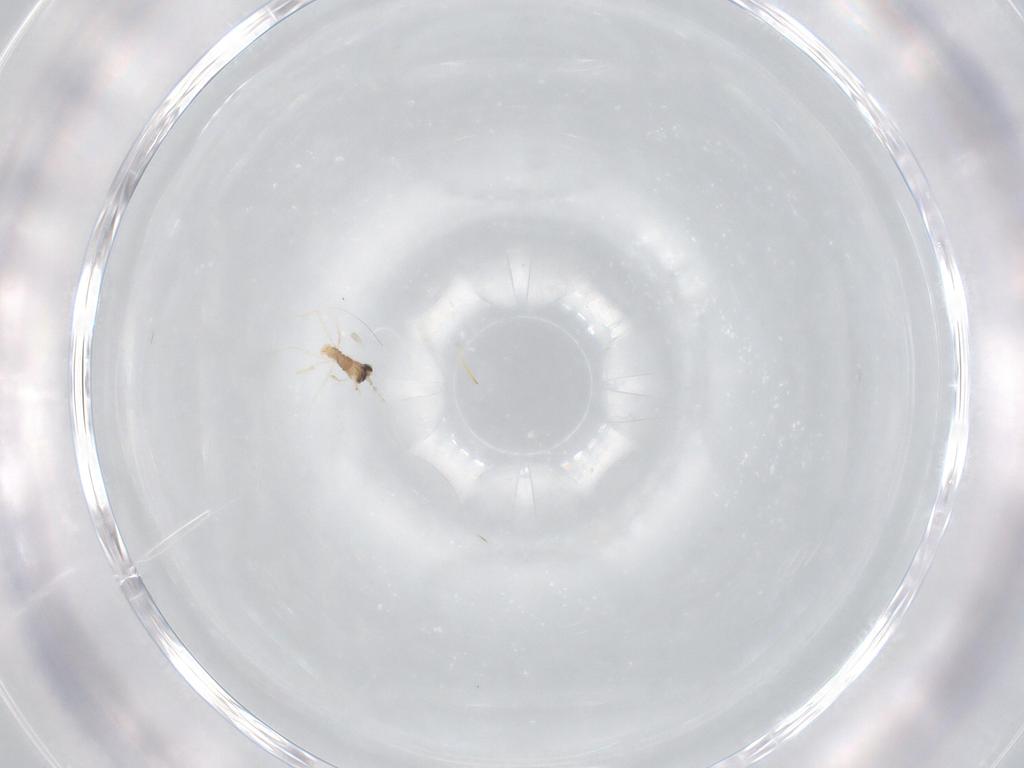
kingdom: Animalia
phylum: Arthropoda
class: Insecta
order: Diptera
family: Cecidomyiidae
